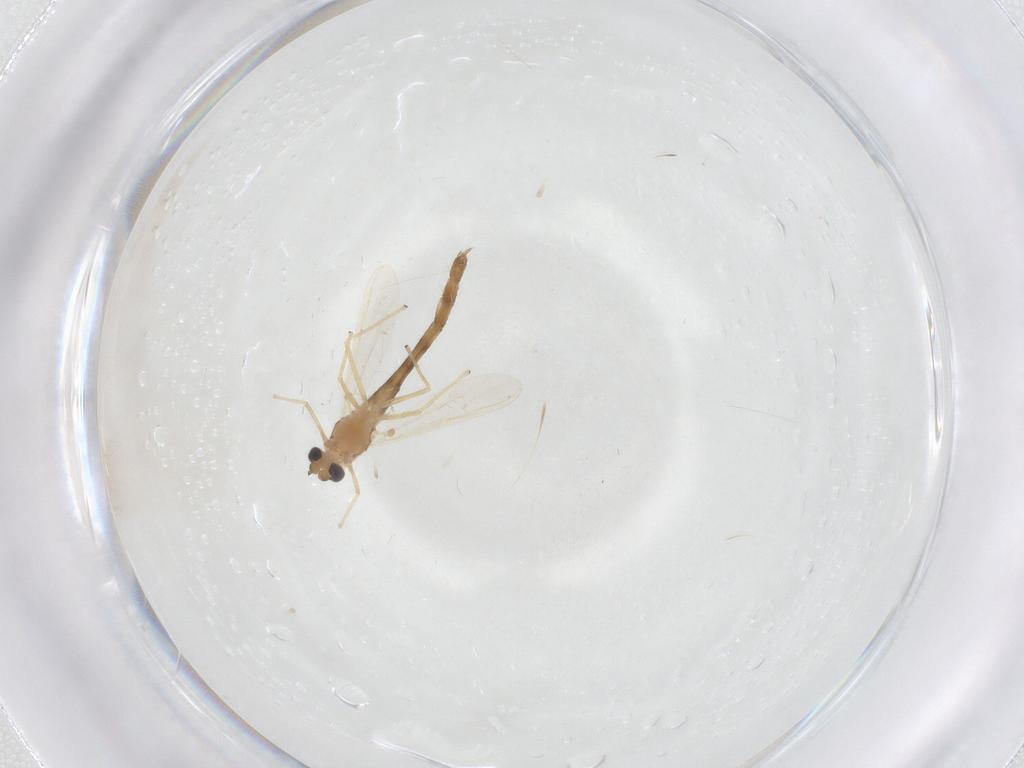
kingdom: Animalia
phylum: Arthropoda
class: Insecta
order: Diptera
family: Chironomidae
